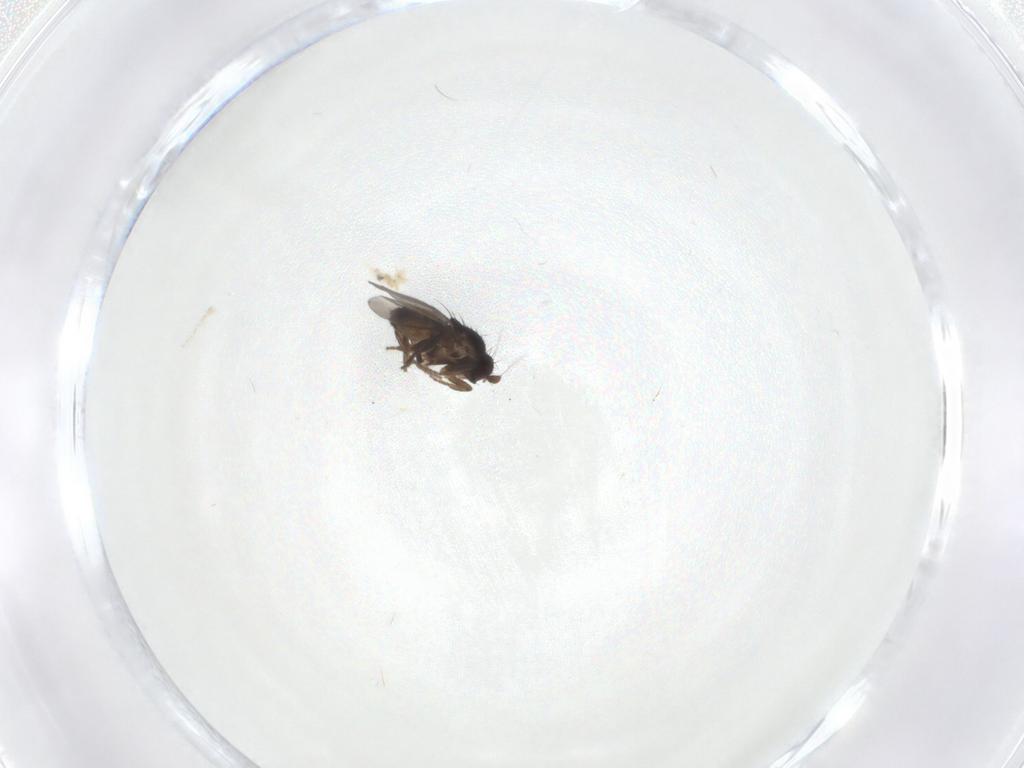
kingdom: Animalia
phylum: Arthropoda
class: Insecta
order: Diptera
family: Sphaeroceridae
